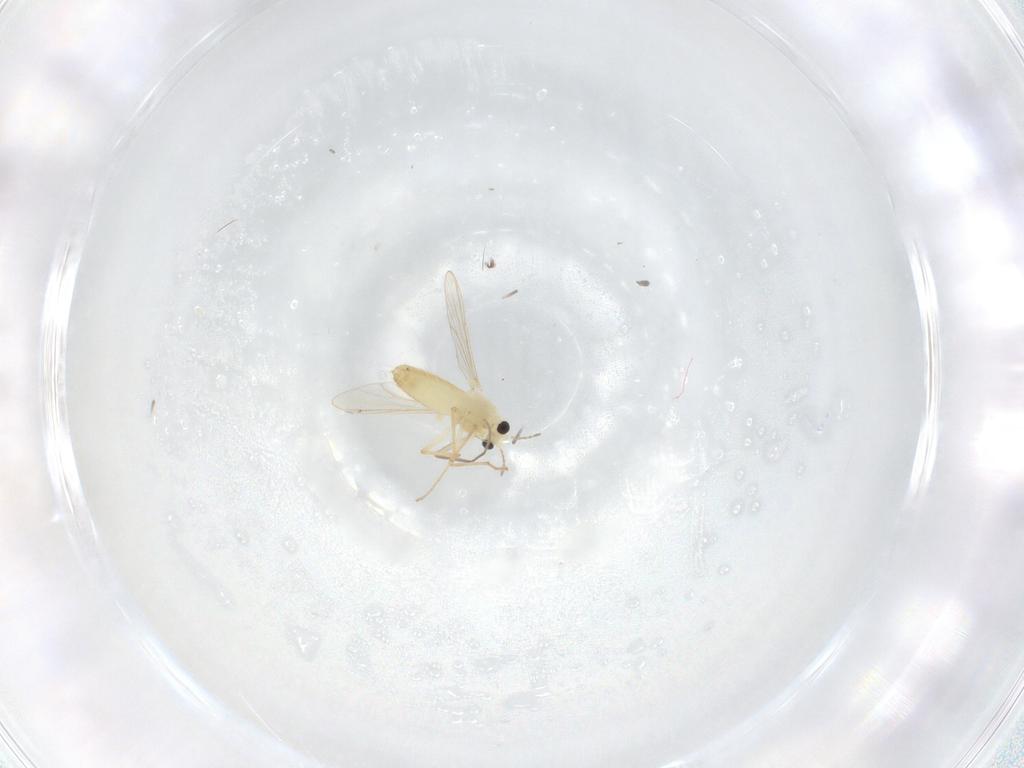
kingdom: Animalia
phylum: Arthropoda
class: Insecta
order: Diptera
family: Chironomidae
